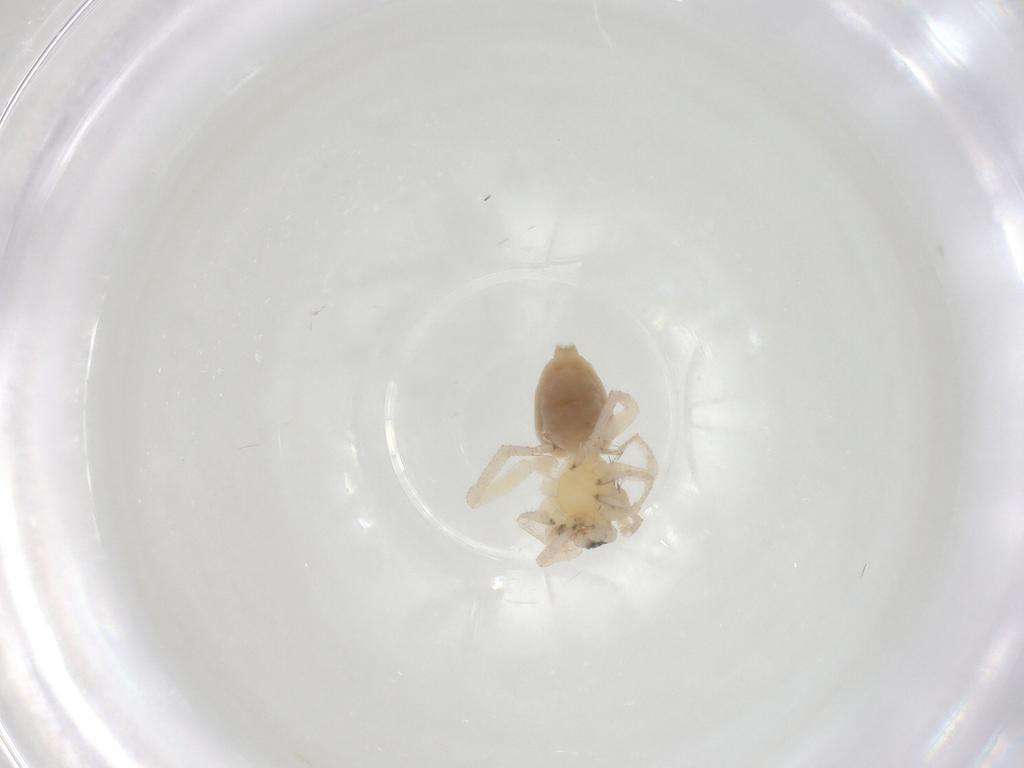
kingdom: Animalia
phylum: Arthropoda
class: Arachnida
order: Araneae
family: Clubionidae
